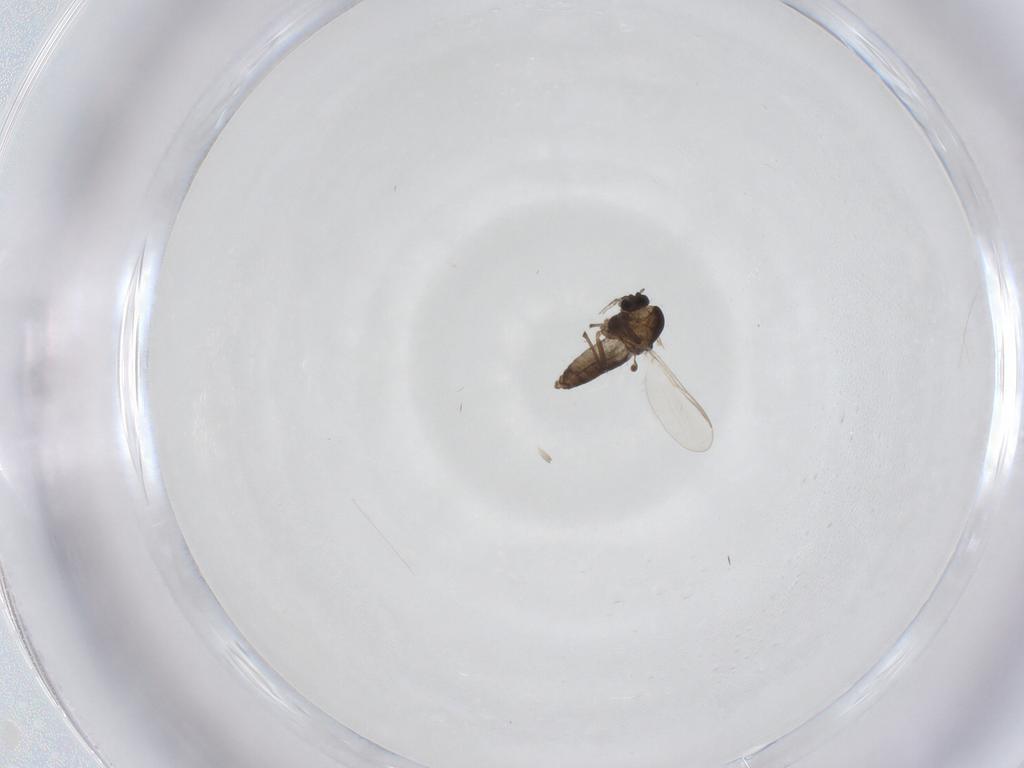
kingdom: Animalia
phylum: Arthropoda
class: Insecta
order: Diptera
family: Chironomidae
